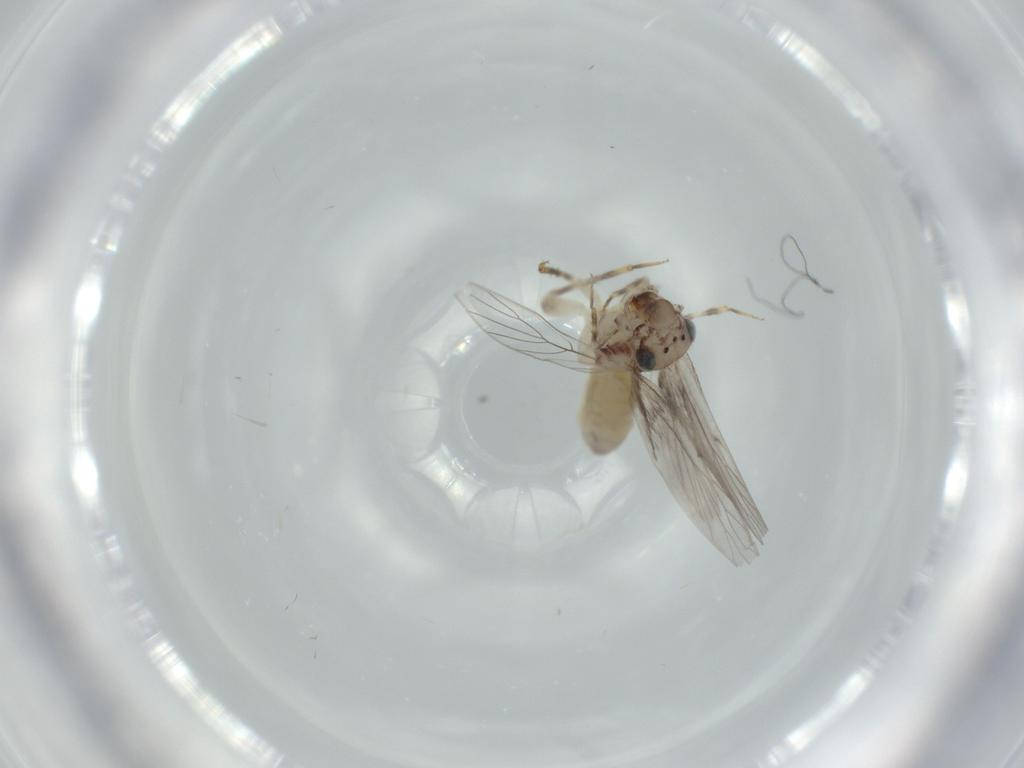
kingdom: Animalia
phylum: Arthropoda
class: Insecta
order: Psocodea
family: Lepidopsocidae
